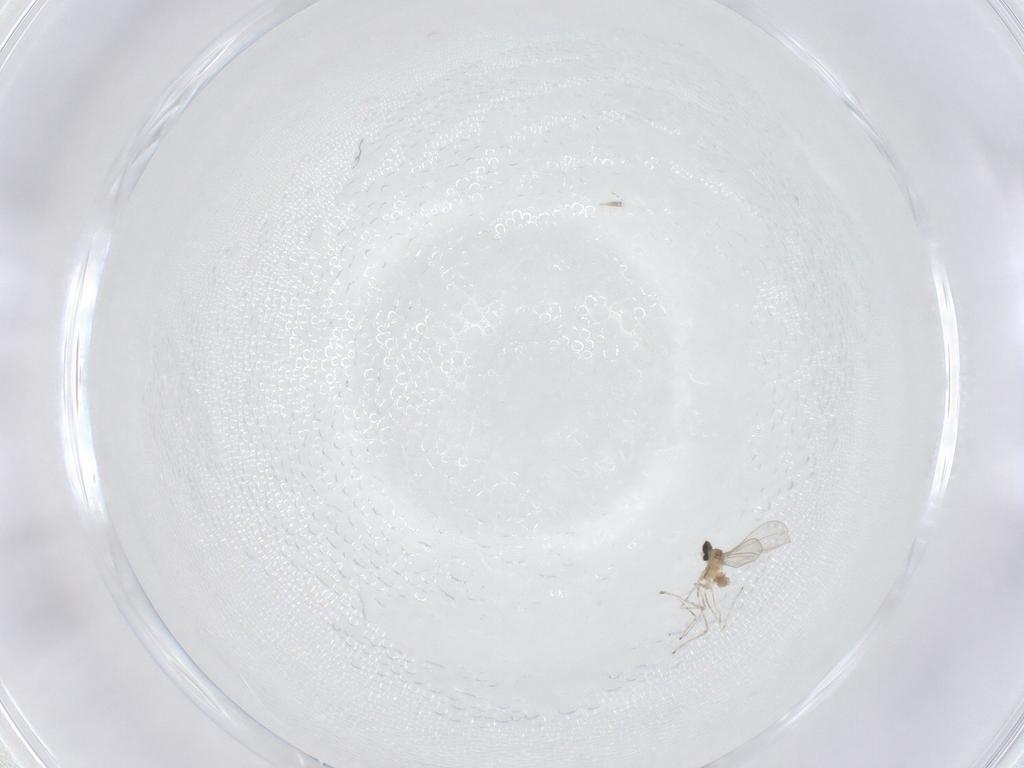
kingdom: Animalia
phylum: Arthropoda
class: Insecta
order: Diptera
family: Cecidomyiidae
